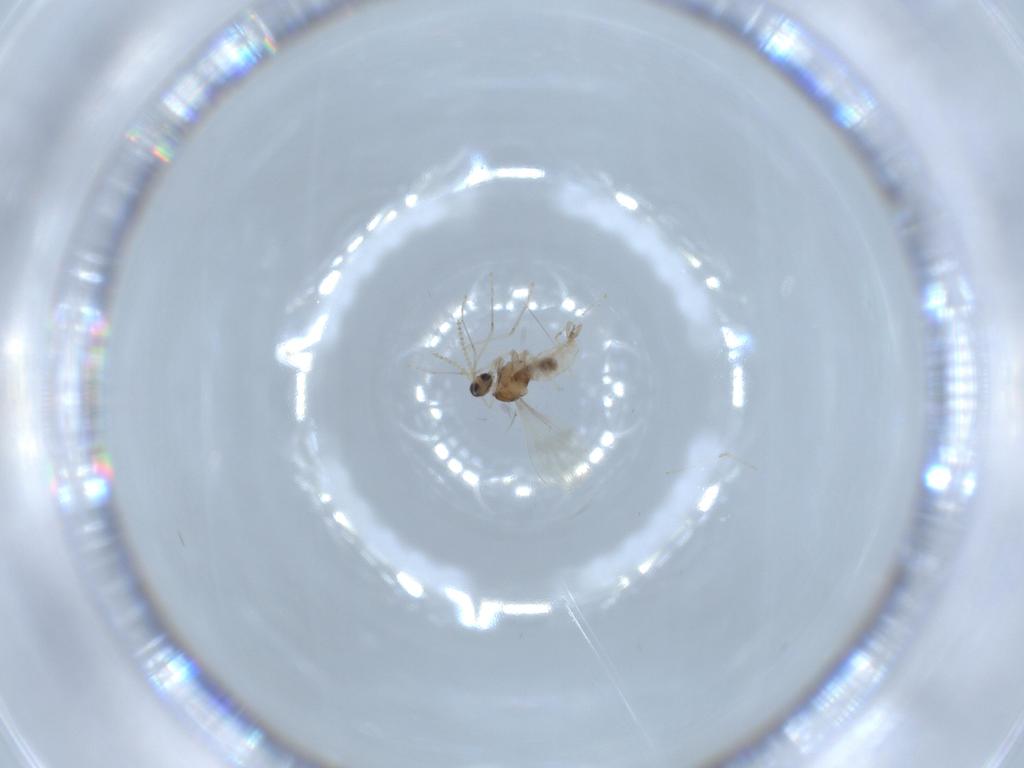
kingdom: Animalia
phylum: Arthropoda
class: Insecta
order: Diptera
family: Cecidomyiidae
